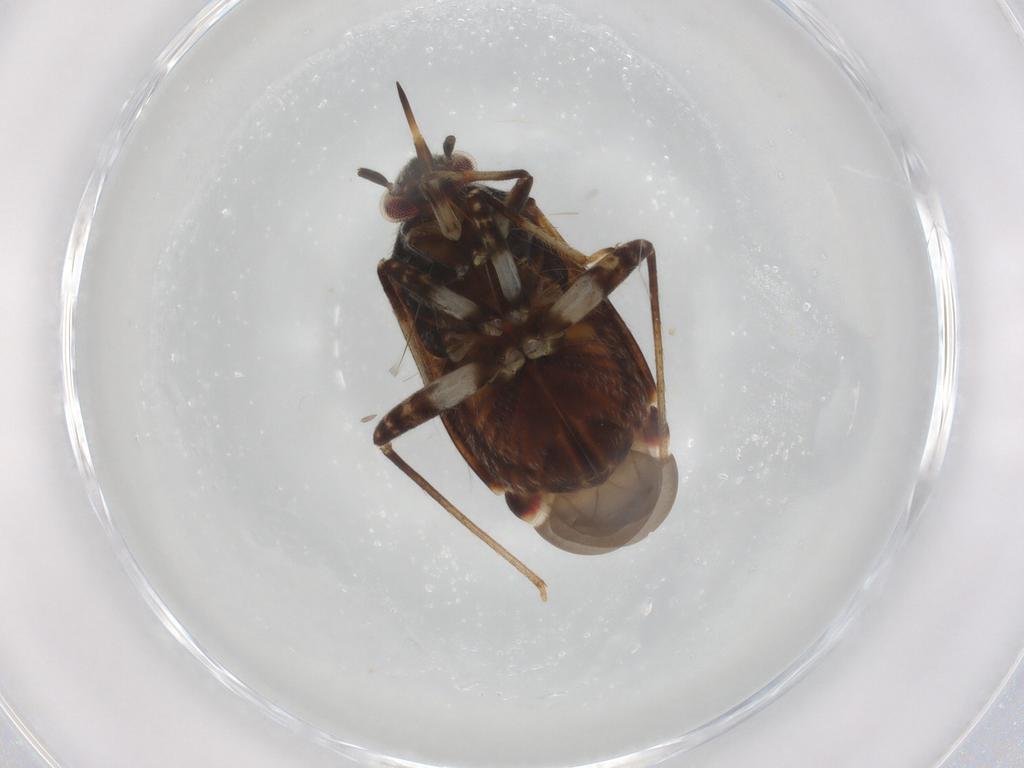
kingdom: Animalia
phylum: Arthropoda
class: Insecta
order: Hemiptera
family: Miridae
